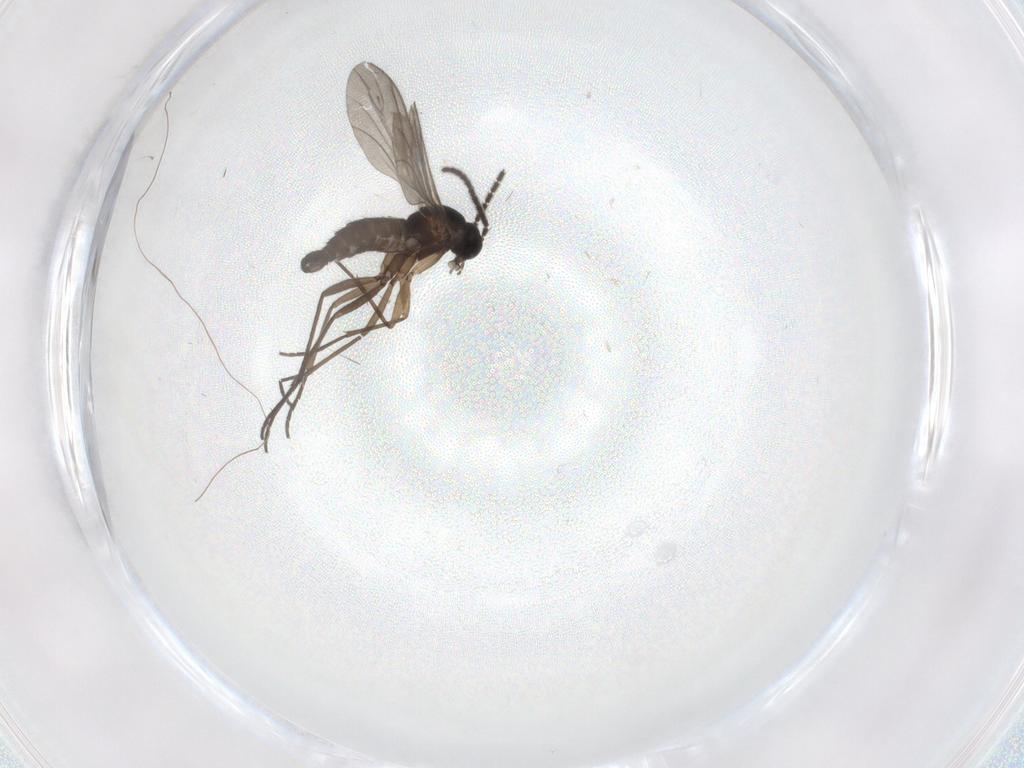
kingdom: Animalia
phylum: Arthropoda
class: Insecta
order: Diptera
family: Sciaridae
